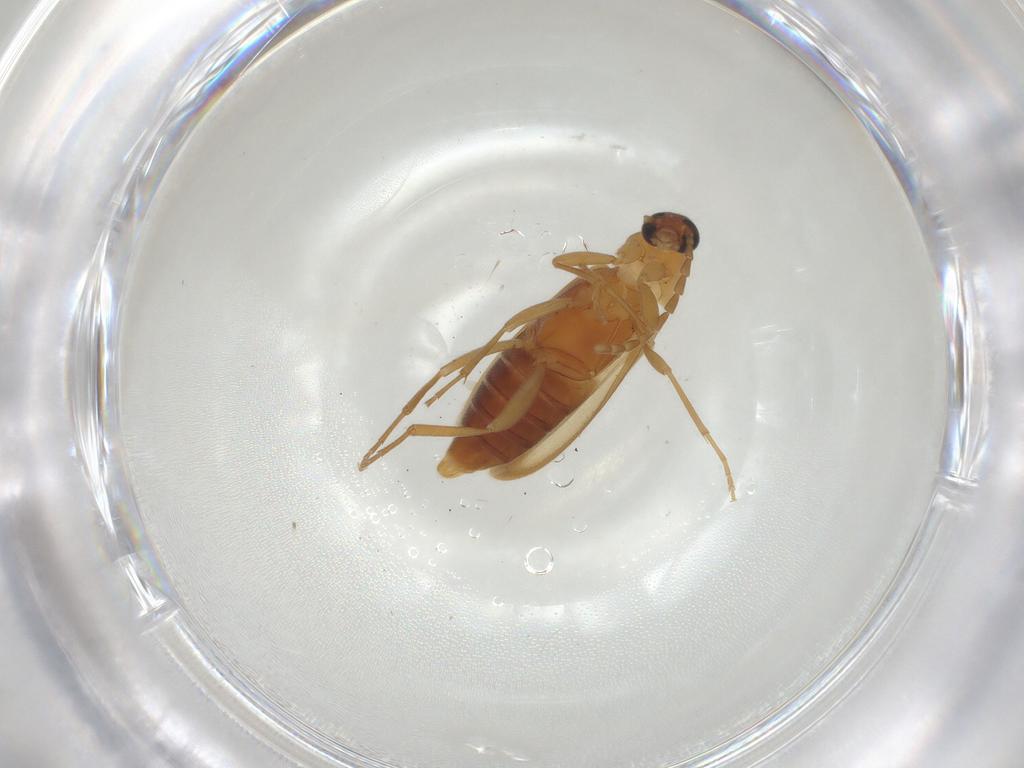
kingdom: Animalia
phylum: Arthropoda
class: Insecta
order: Coleoptera
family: Scraptiidae
